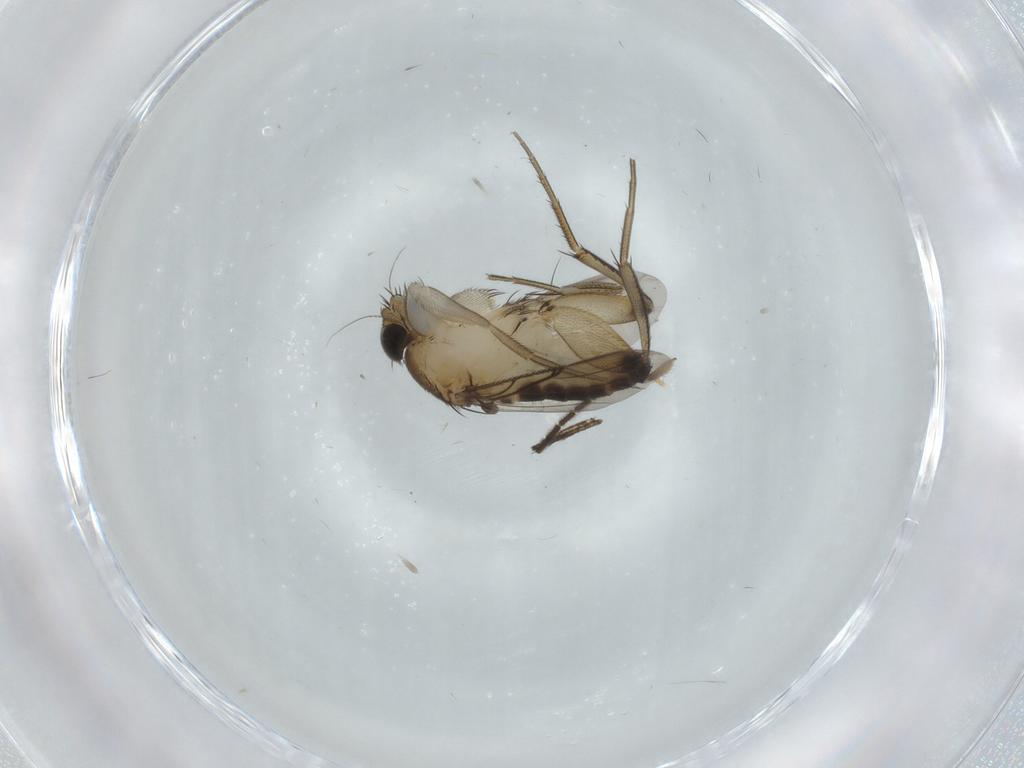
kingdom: Animalia
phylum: Arthropoda
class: Insecta
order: Diptera
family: Phoridae
